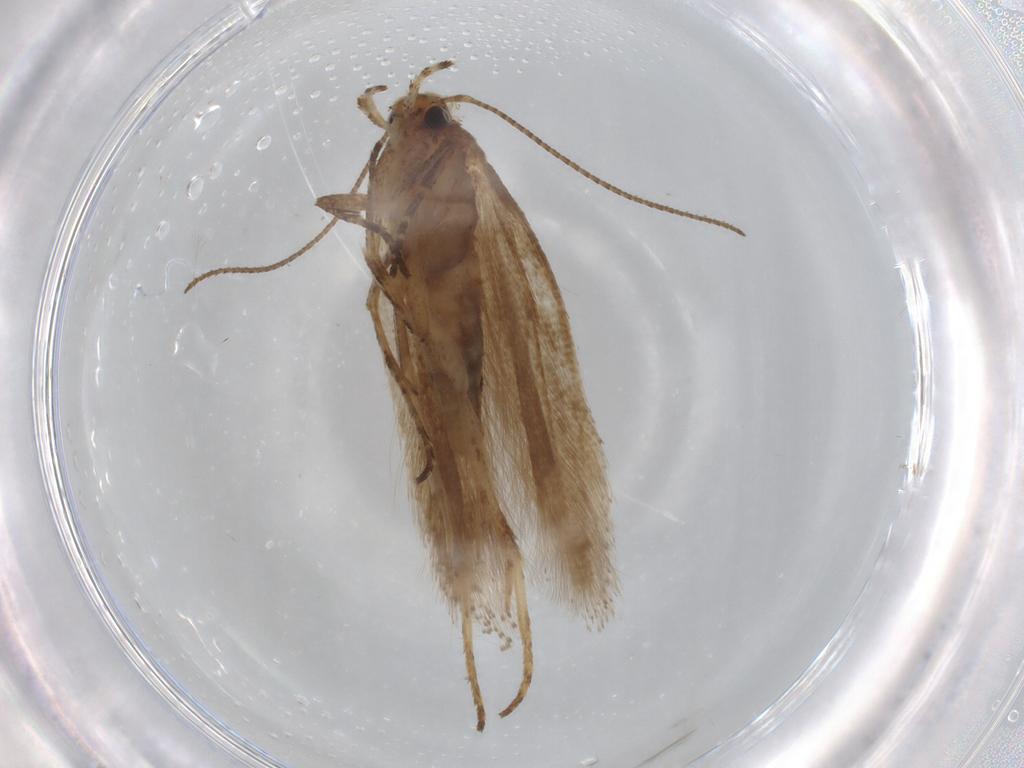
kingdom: Animalia
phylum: Arthropoda
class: Insecta
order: Lepidoptera
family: Gelechiidae
